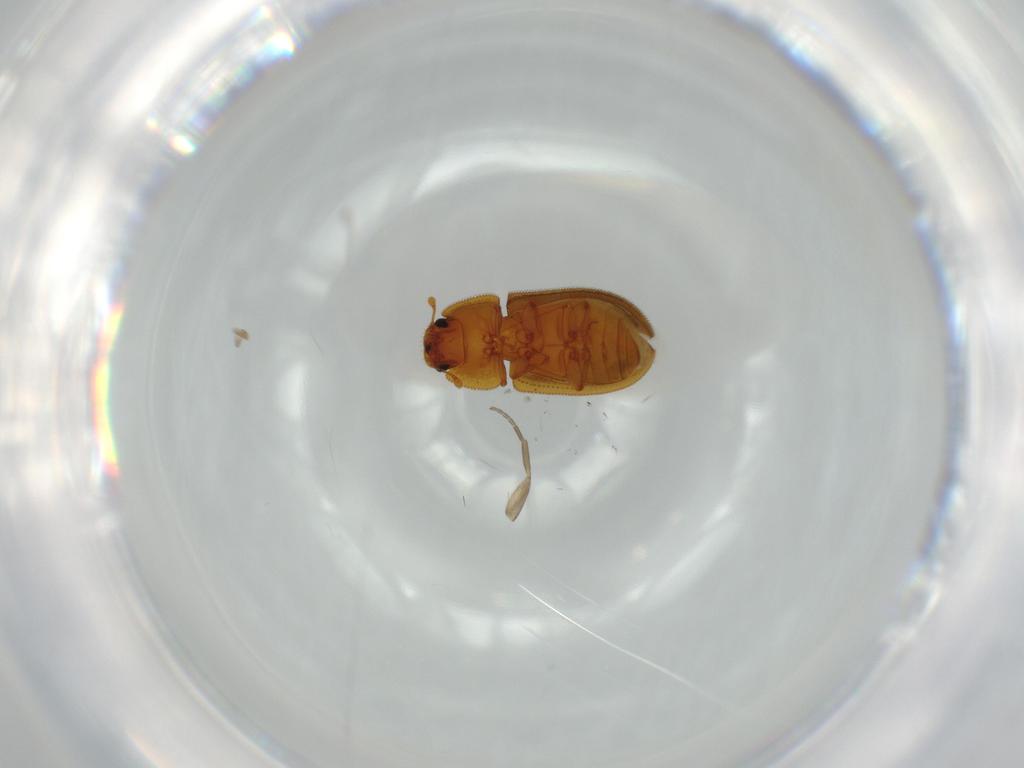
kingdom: Animalia
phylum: Arthropoda
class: Insecta
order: Coleoptera
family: Zopheridae
